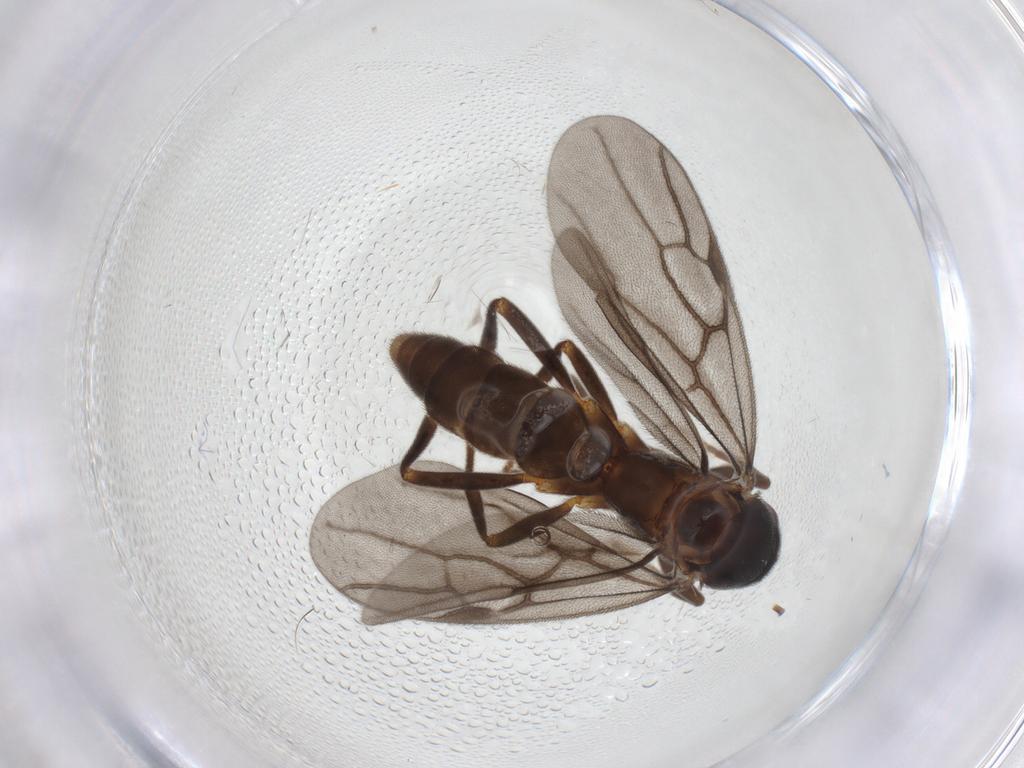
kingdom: Animalia
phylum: Arthropoda
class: Insecta
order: Hymenoptera
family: Formicidae
